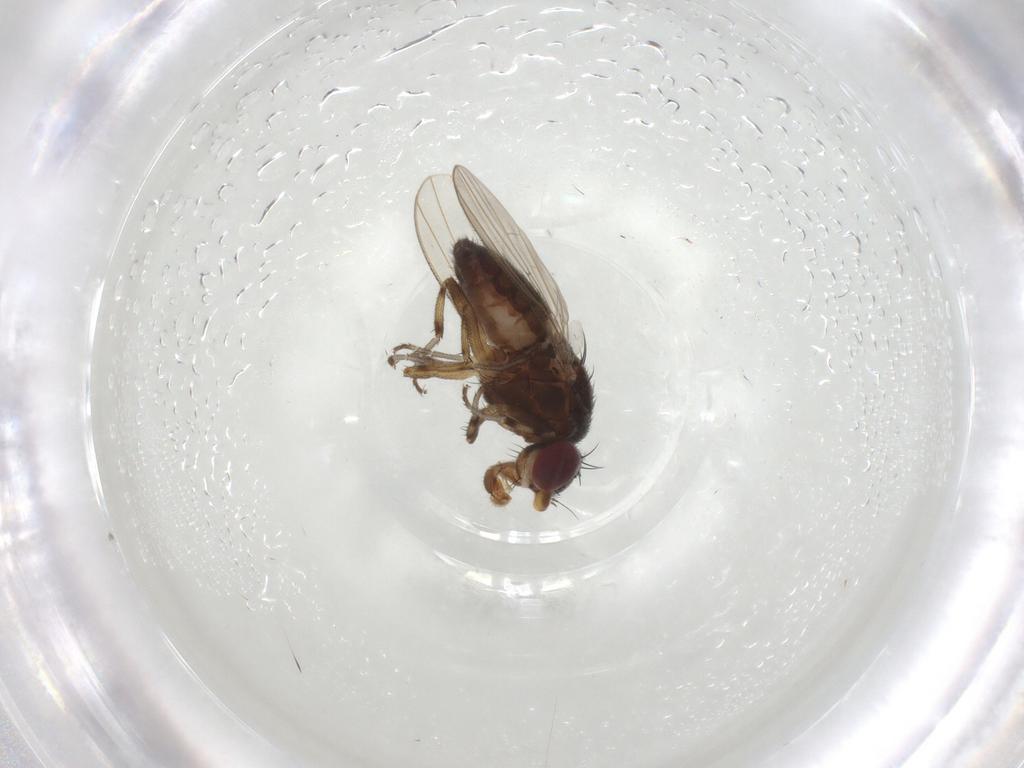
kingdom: Animalia
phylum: Arthropoda
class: Insecta
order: Diptera
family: Heleomyzidae
